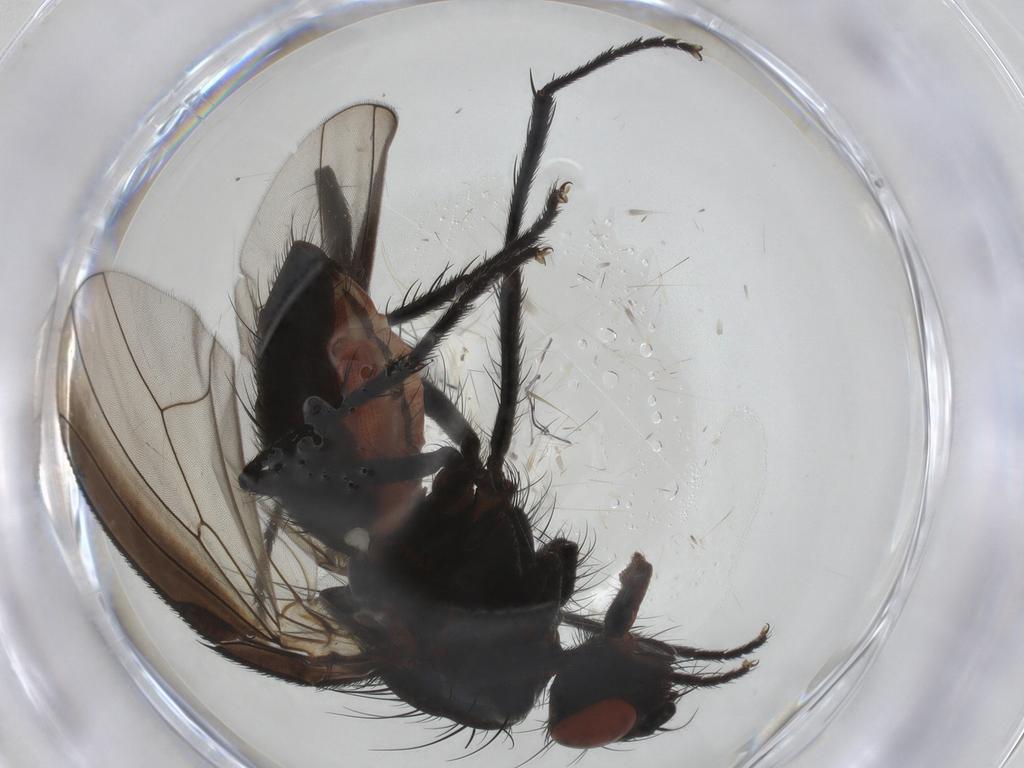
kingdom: Animalia
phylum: Arthropoda
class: Insecta
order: Diptera
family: Anthomyiidae
